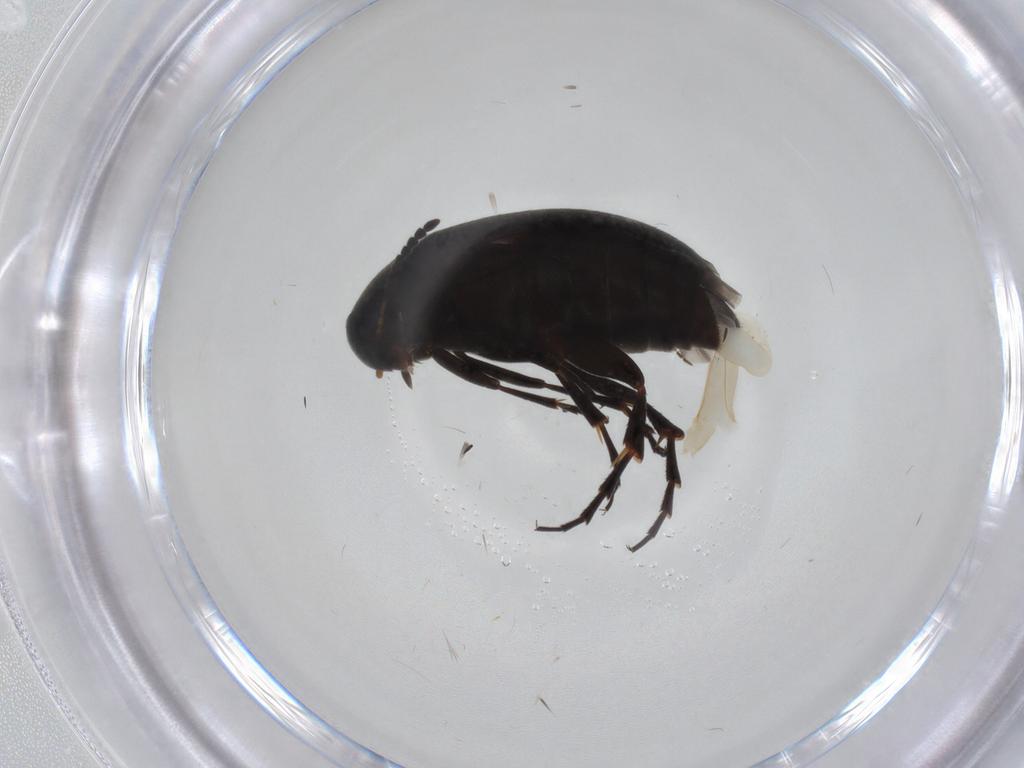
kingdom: Animalia
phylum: Arthropoda
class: Insecta
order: Coleoptera
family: Scraptiidae
